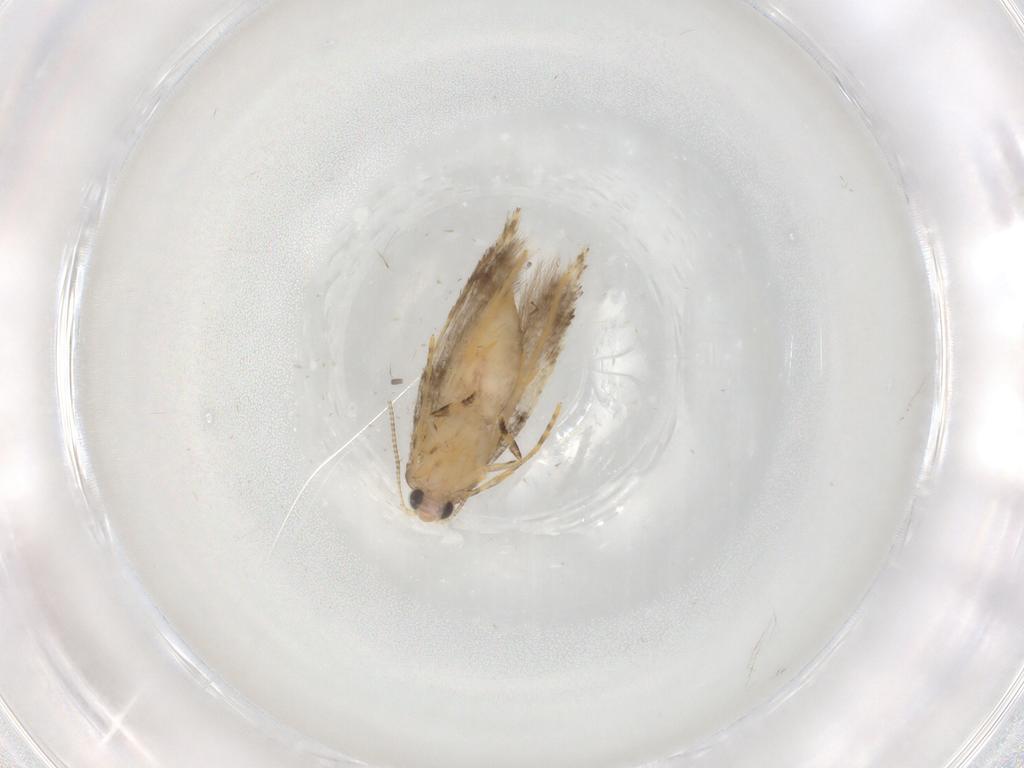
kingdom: Animalia
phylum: Arthropoda
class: Insecta
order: Lepidoptera
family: Tineidae
